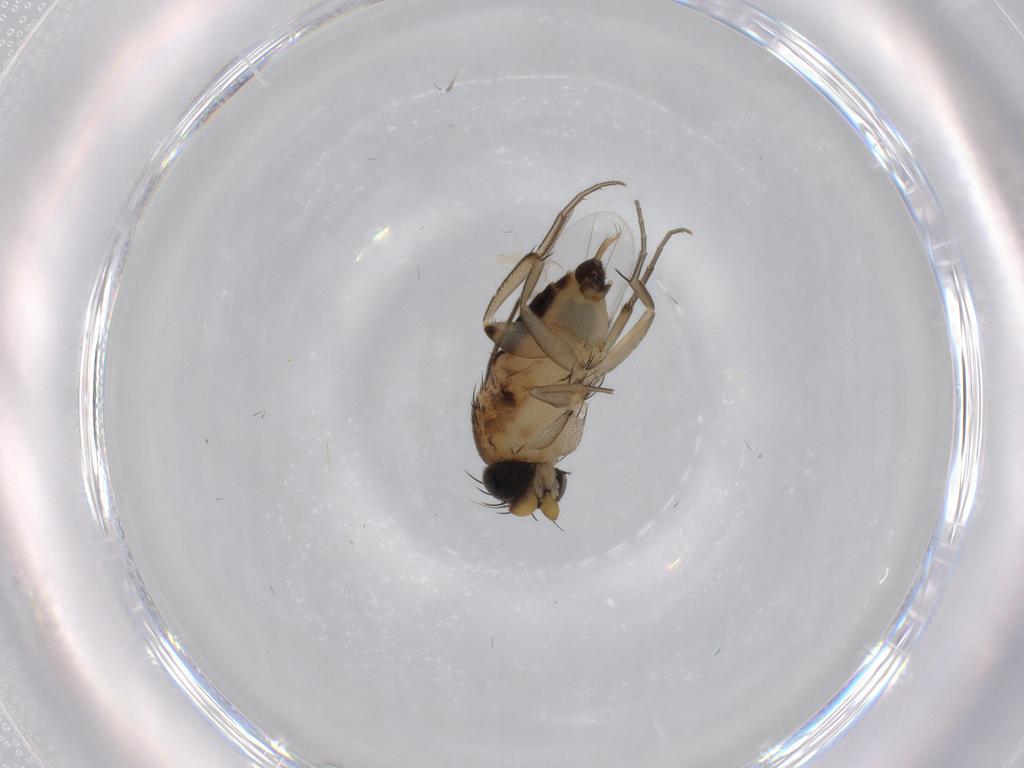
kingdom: Animalia
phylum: Arthropoda
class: Insecta
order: Diptera
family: Phoridae
